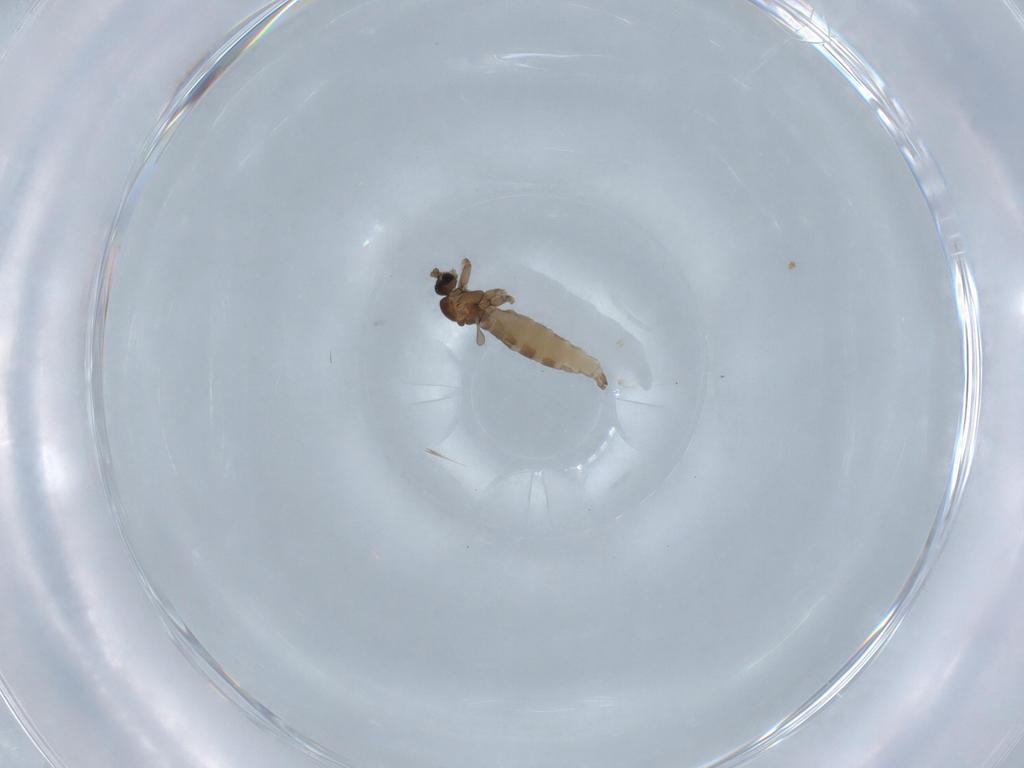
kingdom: Animalia
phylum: Arthropoda
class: Insecta
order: Diptera
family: Sciaridae
